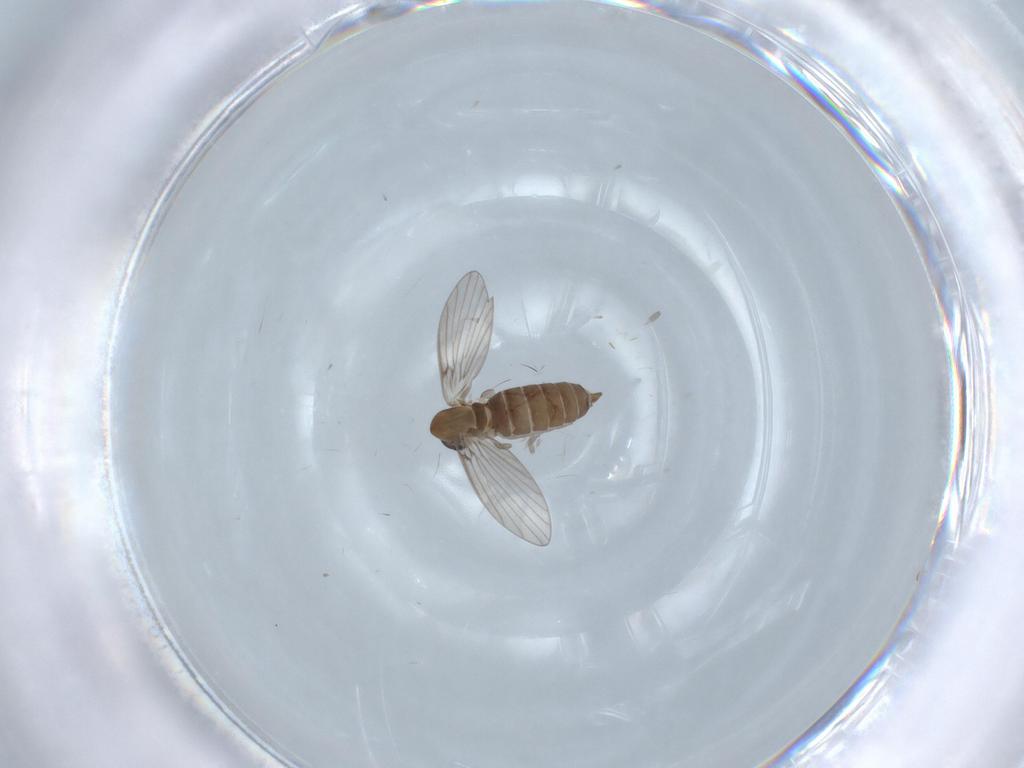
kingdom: Animalia
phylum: Arthropoda
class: Insecta
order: Diptera
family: Tabanidae
